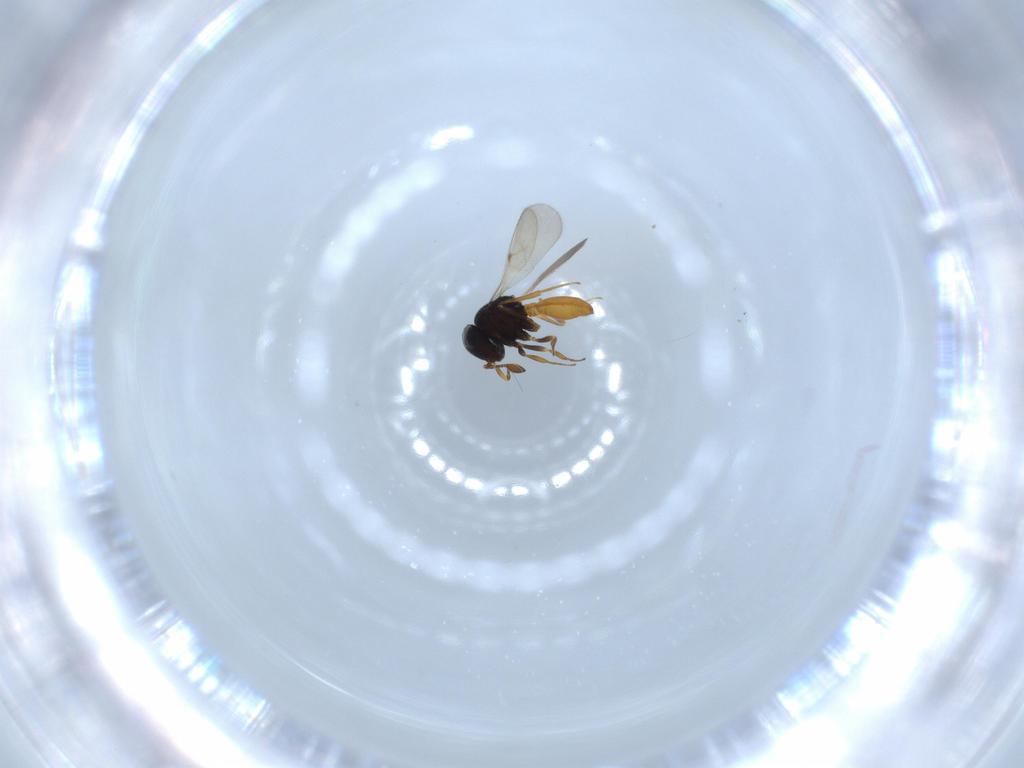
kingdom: Animalia
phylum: Arthropoda
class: Insecta
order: Hymenoptera
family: Scelionidae
